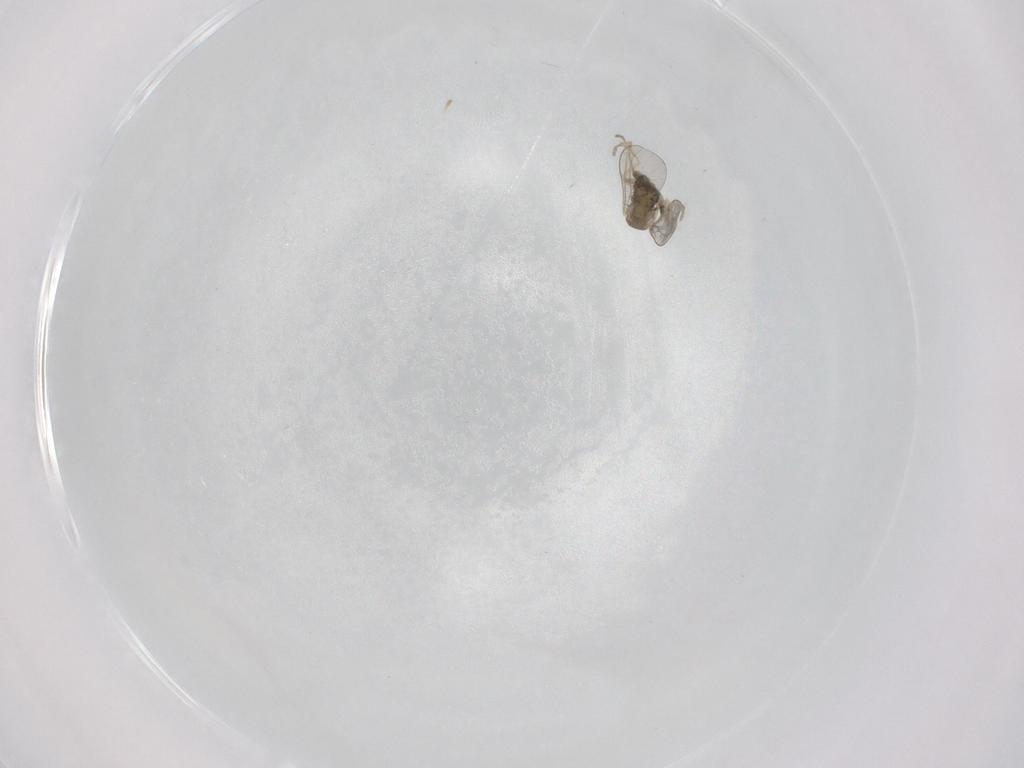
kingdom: Animalia
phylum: Arthropoda
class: Insecta
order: Diptera
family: Cecidomyiidae
